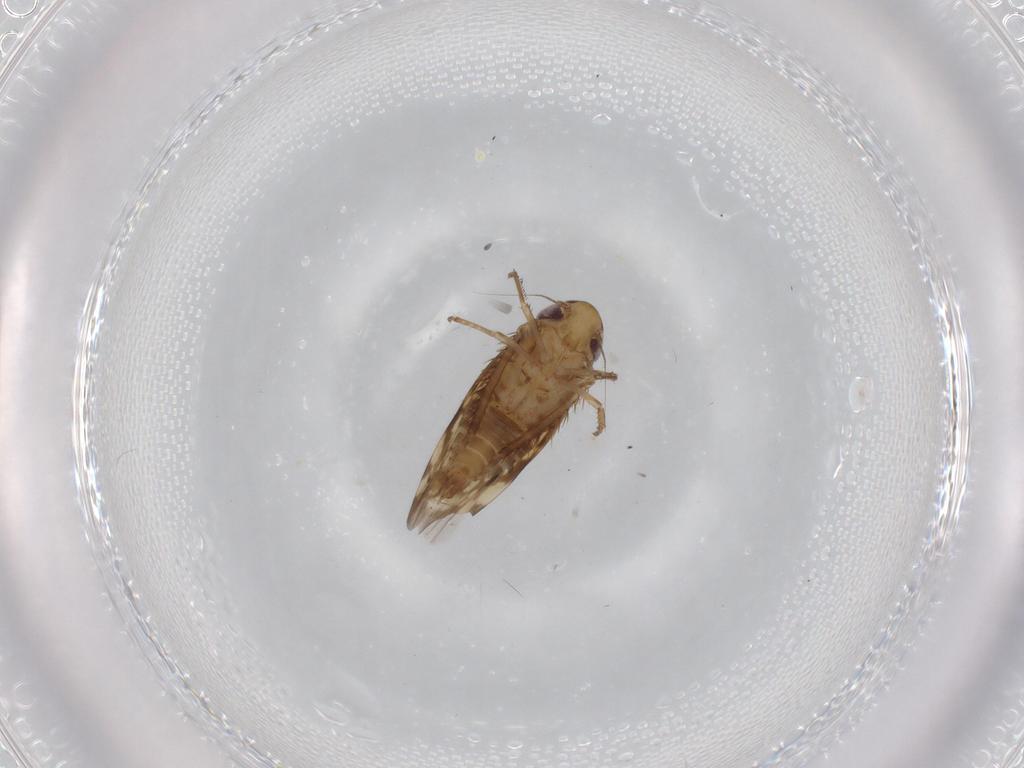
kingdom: Animalia
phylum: Arthropoda
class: Insecta
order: Hemiptera
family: Cicadellidae
